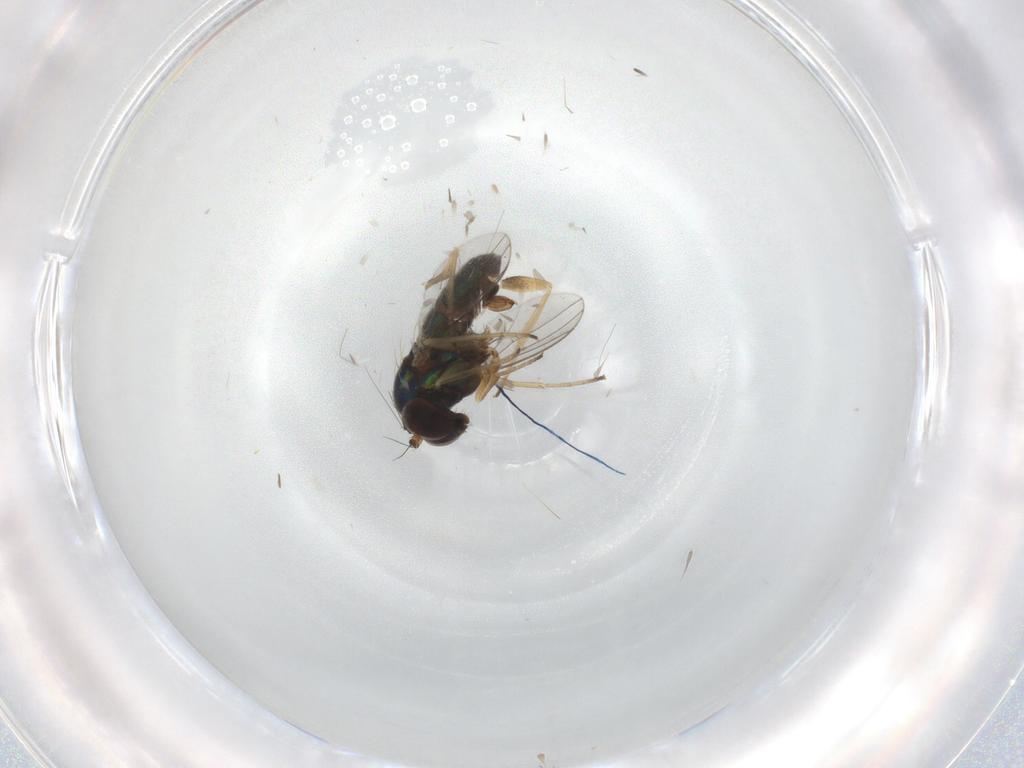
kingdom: Animalia
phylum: Arthropoda
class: Insecta
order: Diptera
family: Dolichopodidae
